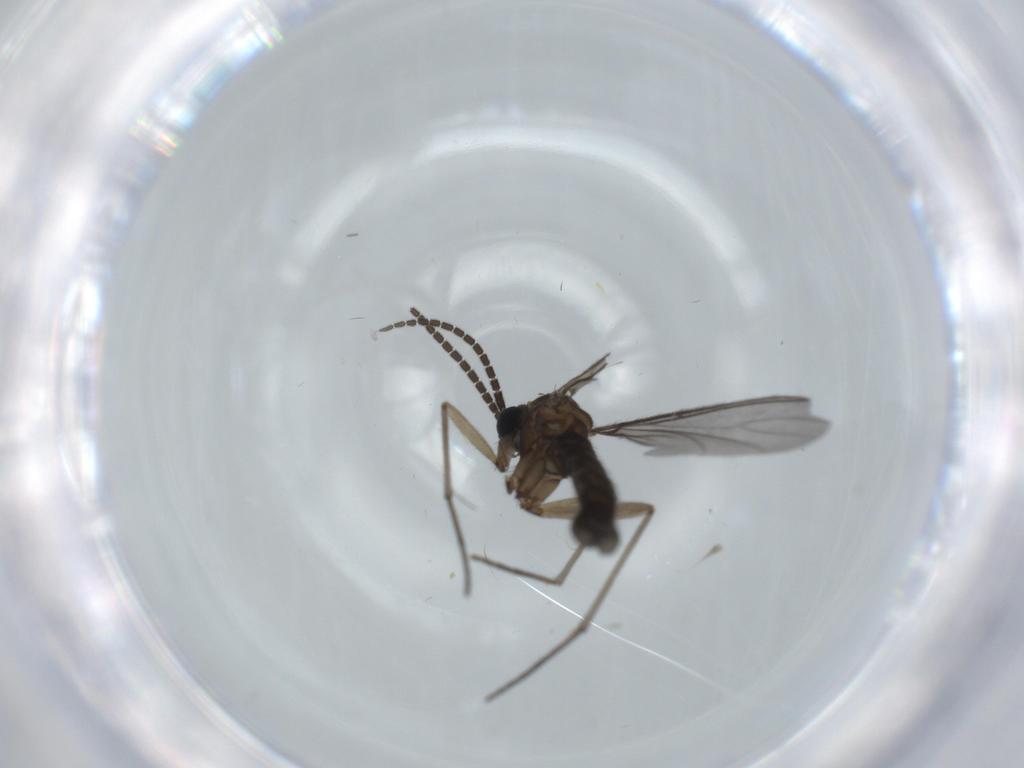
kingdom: Animalia
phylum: Arthropoda
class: Insecta
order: Diptera
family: Sciaridae
